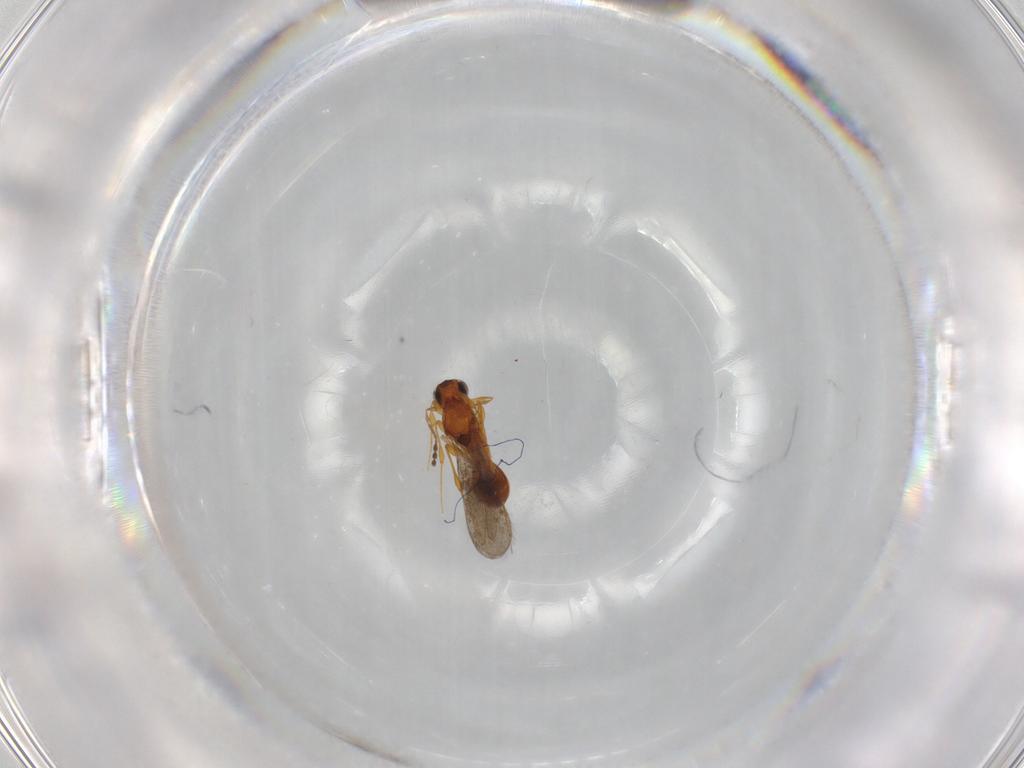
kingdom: Animalia
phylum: Arthropoda
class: Insecta
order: Hymenoptera
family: Platygastridae
